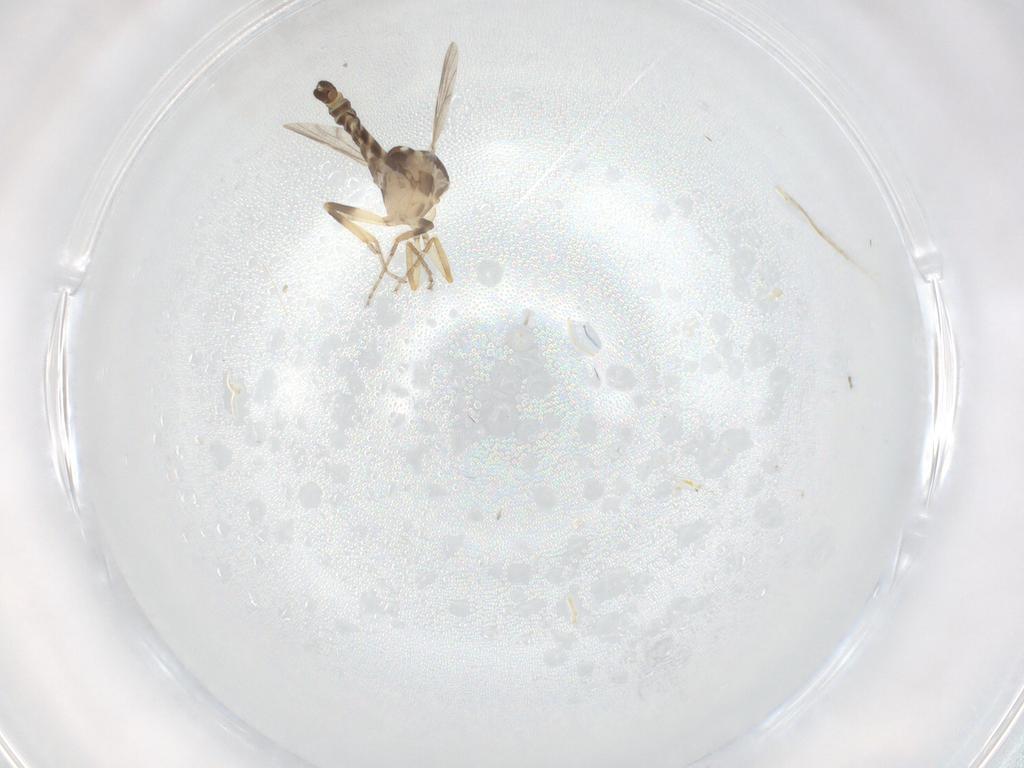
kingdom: Animalia
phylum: Arthropoda
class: Insecta
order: Diptera
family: Ceratopogonidae
